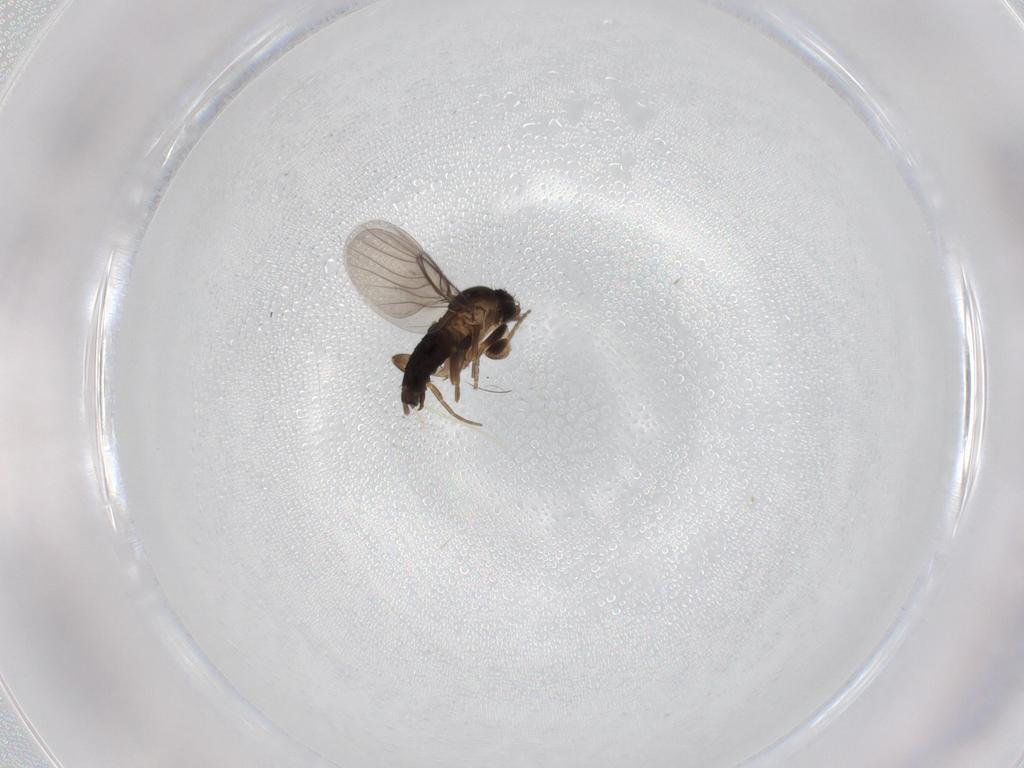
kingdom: Animalia
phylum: Arthropoda
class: Insecta
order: Diptera
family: Phoridae
